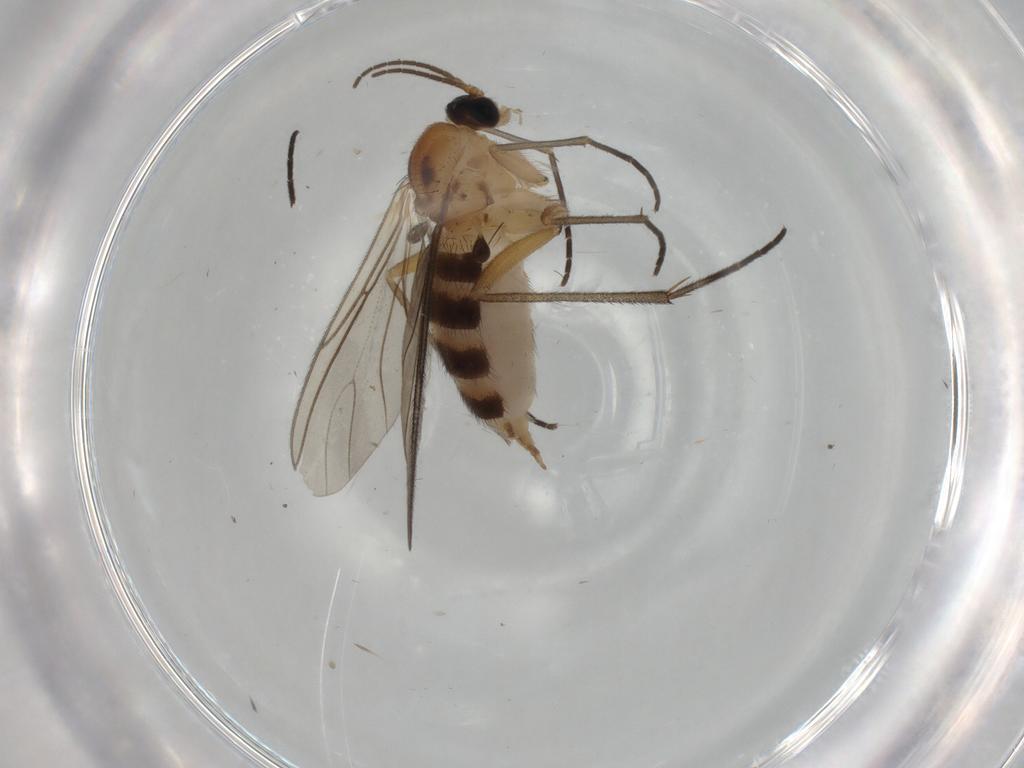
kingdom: Animalia
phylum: Arthropoda
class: Insecta
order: Diptera
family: Sciaridae
